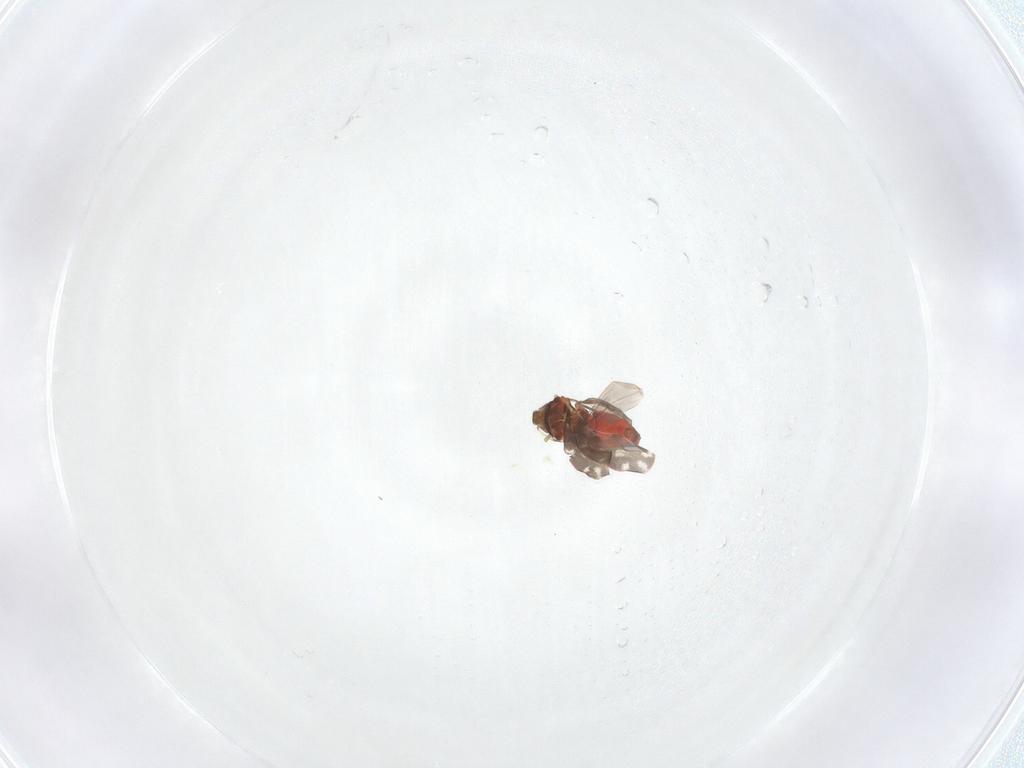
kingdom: Animalia
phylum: Arthropoda
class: Insecta
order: Hemiptera
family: Aleyrodidae
